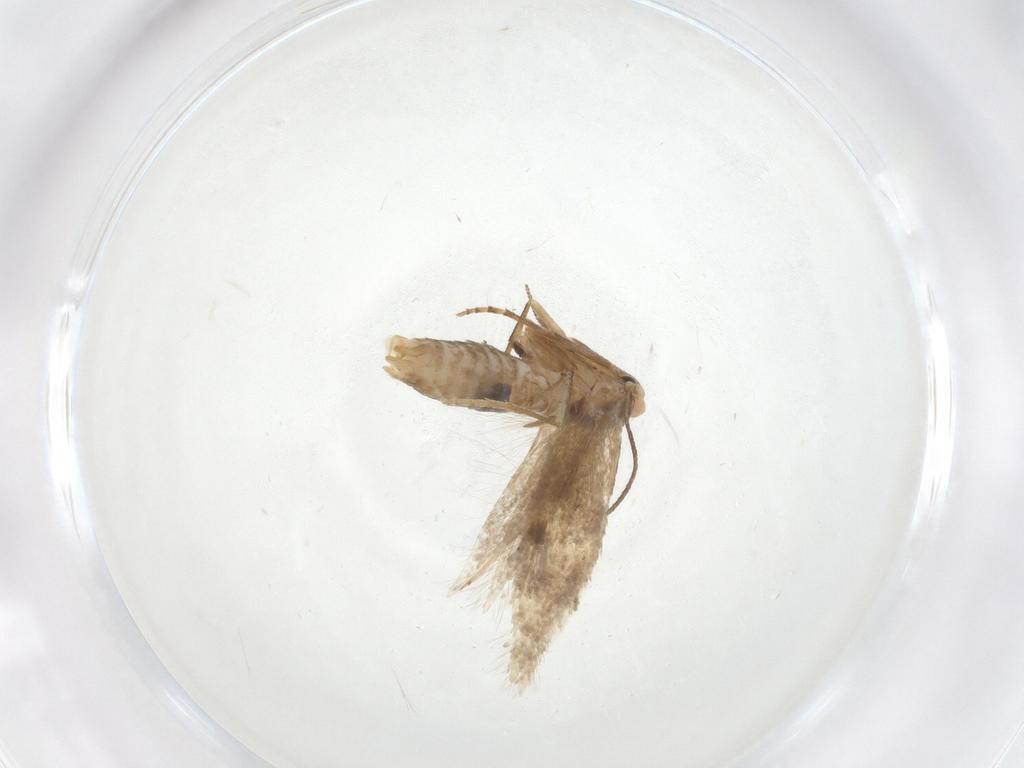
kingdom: Animalia
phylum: Arthropoda
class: Insecta
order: Lepidoptera
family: Bucculatricidae
